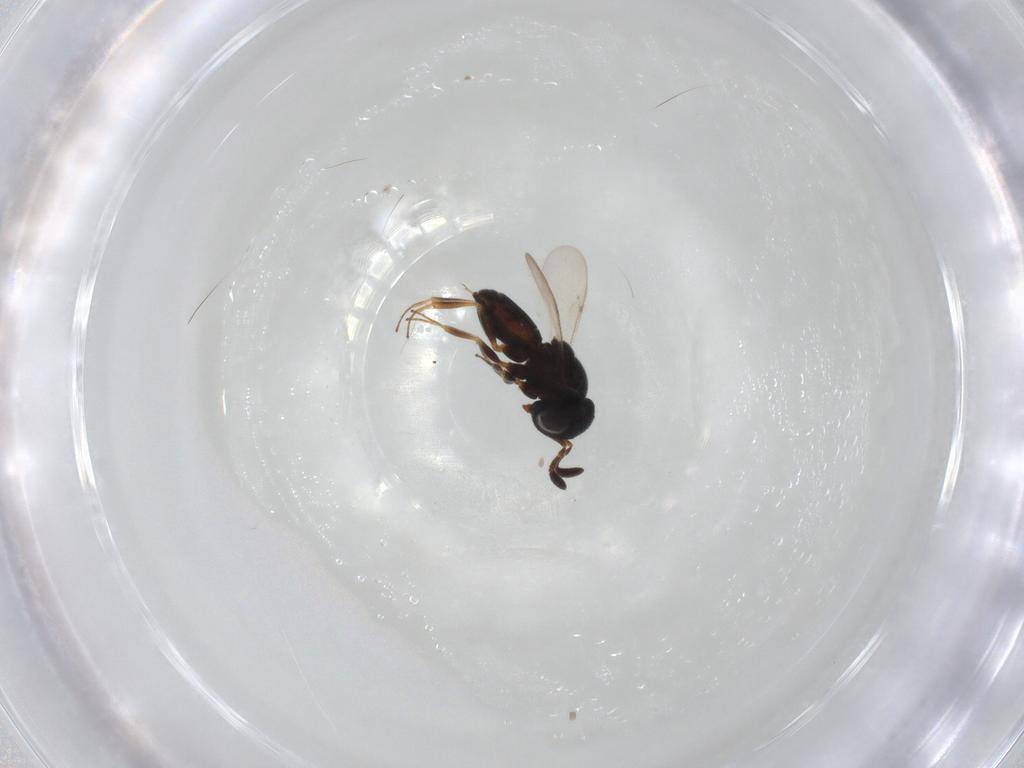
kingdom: Animalia
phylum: Arthropoda
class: Insecta
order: Hymenoptera
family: Scelionidae
